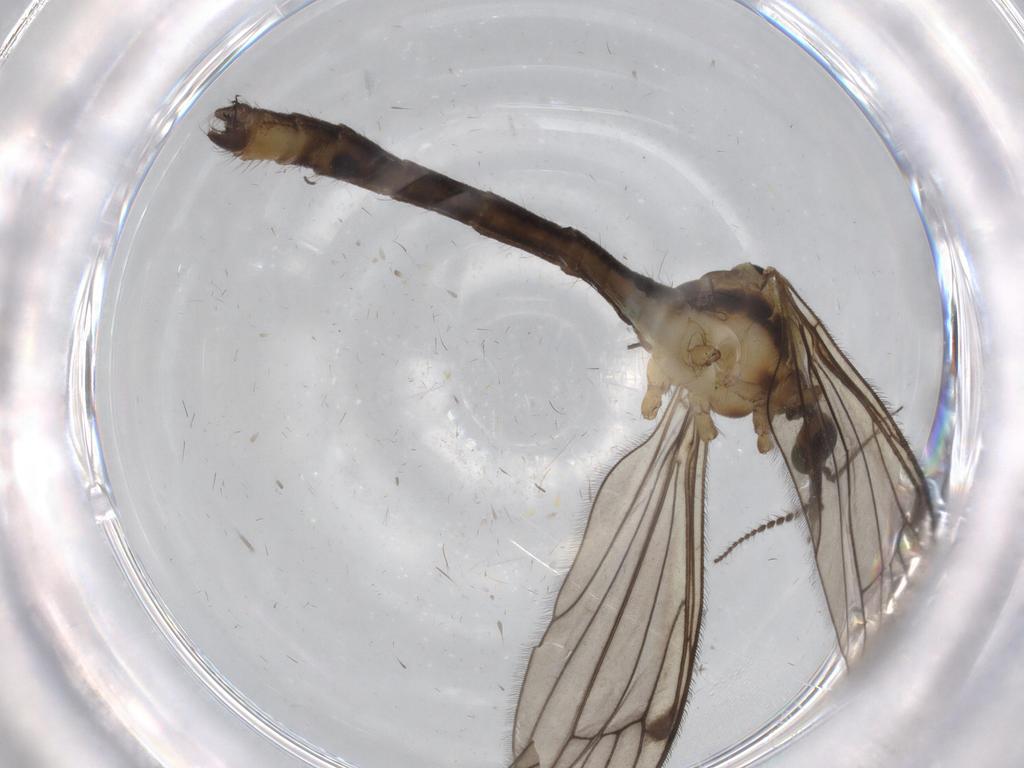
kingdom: Animalia
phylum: Arthropoda
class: Insecta
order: Diptera
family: Limoniidae
